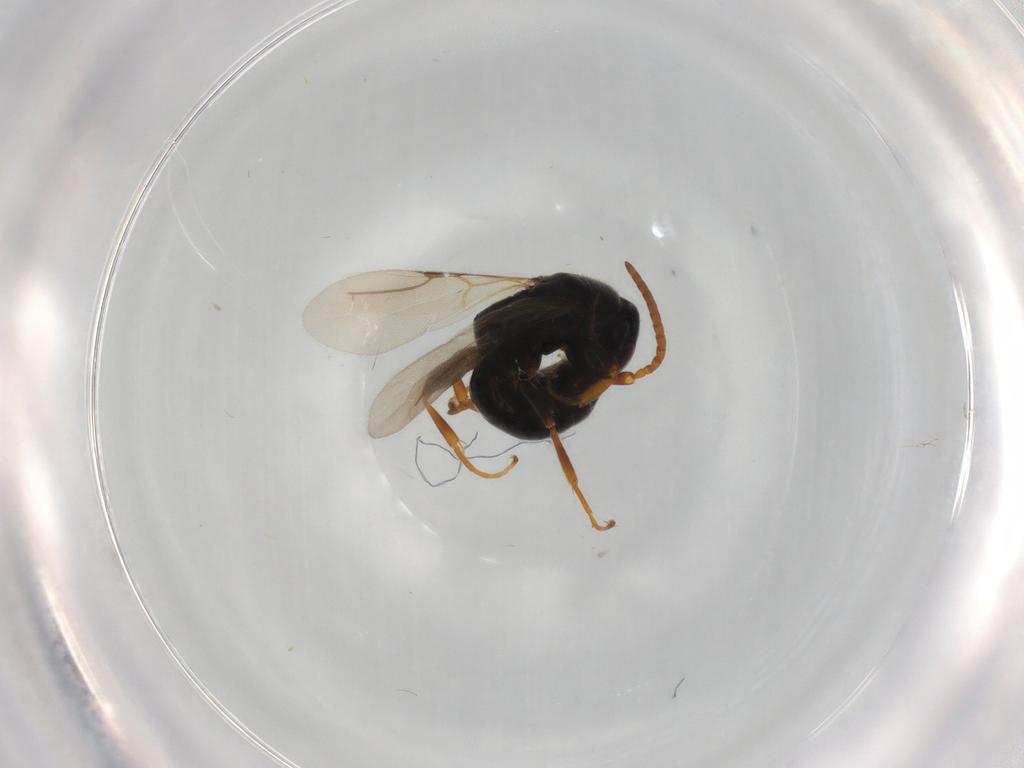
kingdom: Animalia
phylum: Arthropoda
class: Insecta
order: Hymenoptera
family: Bethylidae
